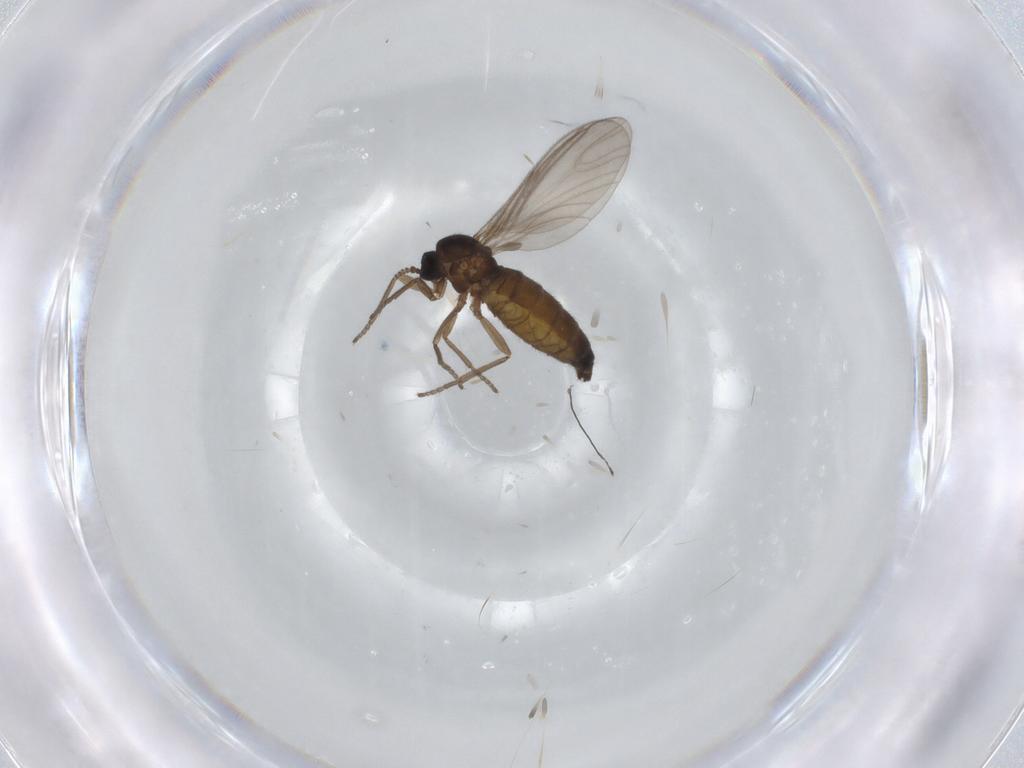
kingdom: Animalia
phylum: Arthropoda
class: Insecta
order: Diptera
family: Sciaridae
